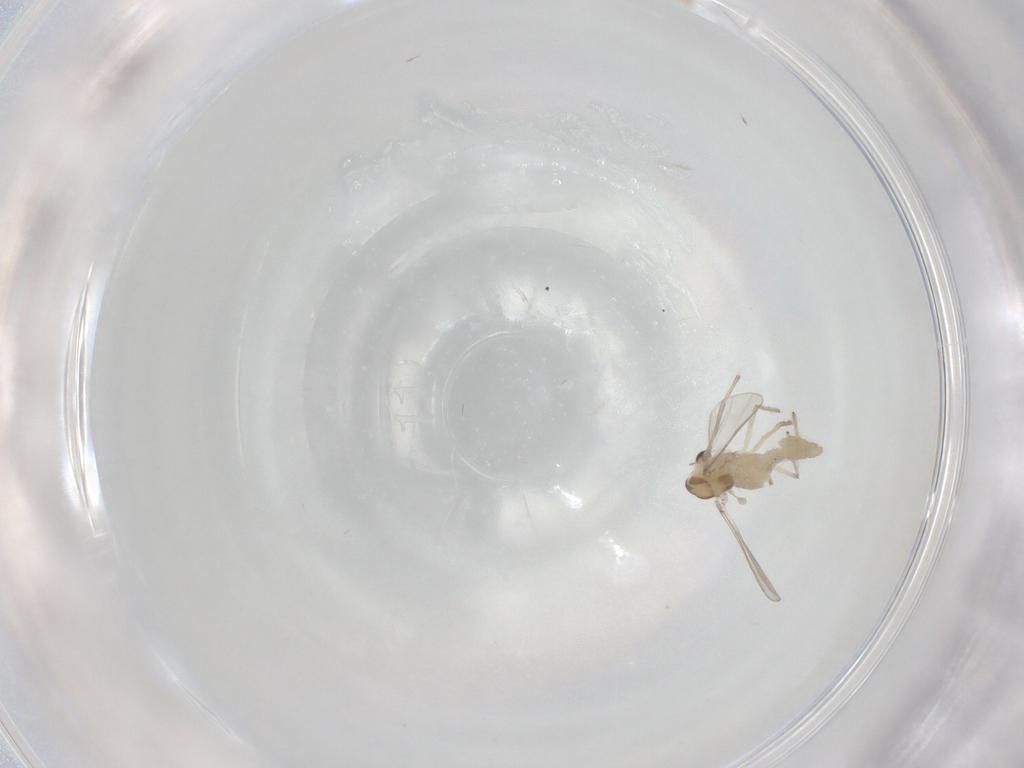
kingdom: Animalia
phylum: Arthropoda
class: Insecta
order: Diptera
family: Chironomidae
